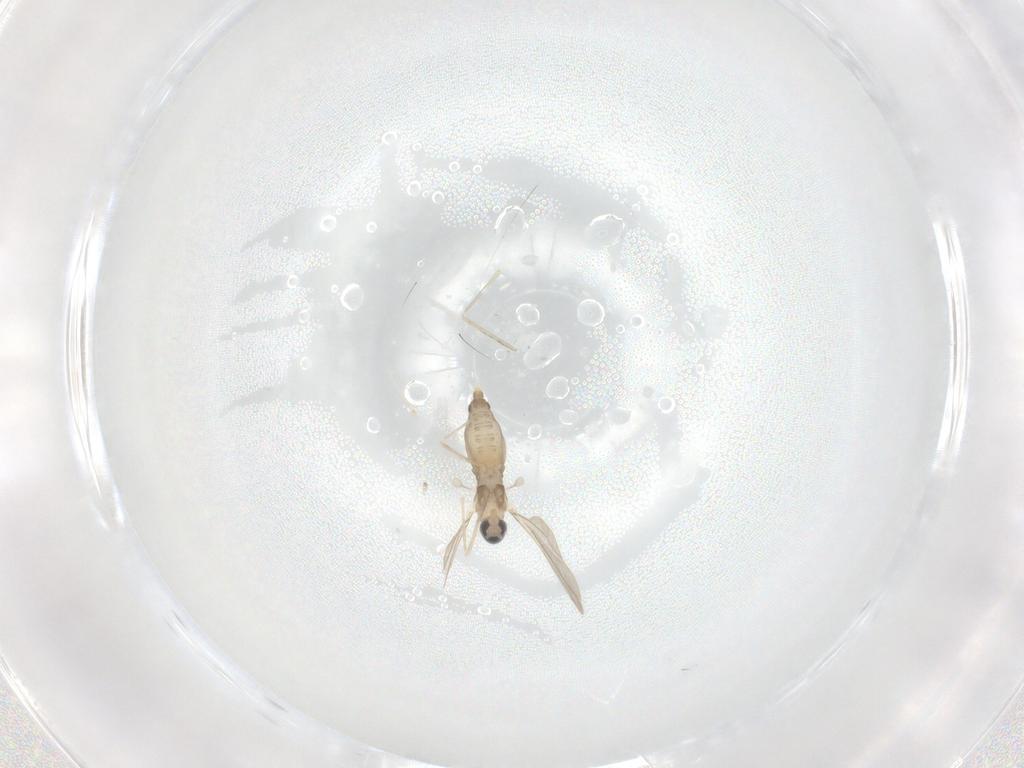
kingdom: Animalia
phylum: Arthropoda
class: Insecta
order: Diptera
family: Cecidomyiidae
